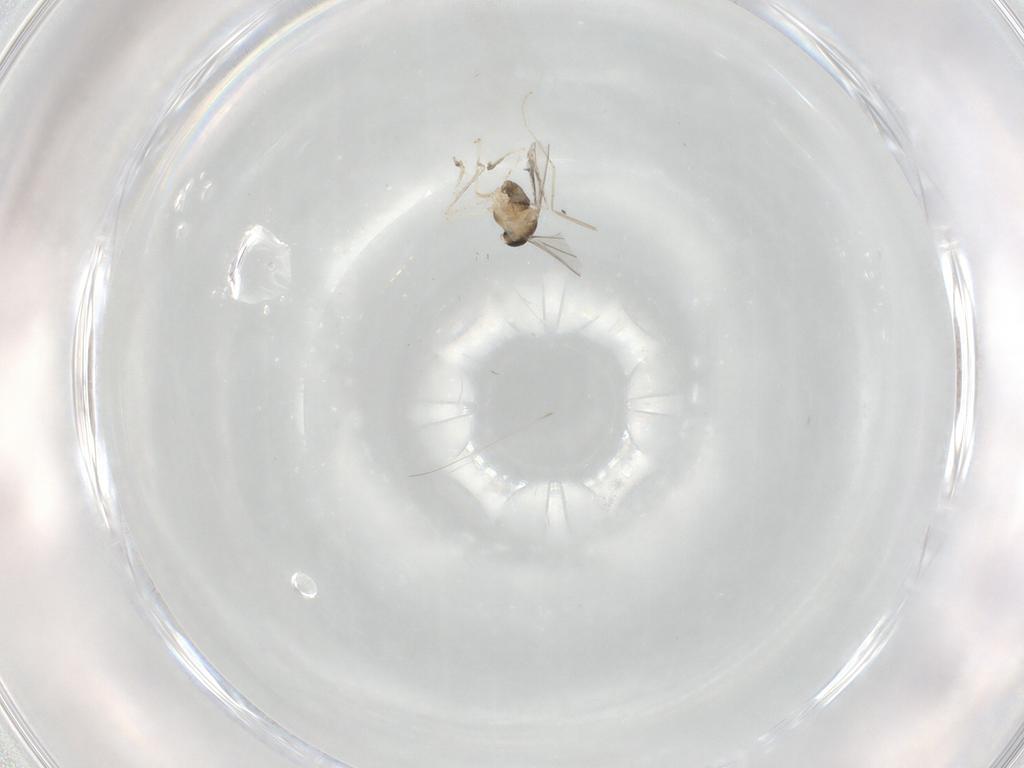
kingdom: Animalia
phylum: Arthropoda
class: Insecta
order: Diptera
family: Cecidomyiidae
